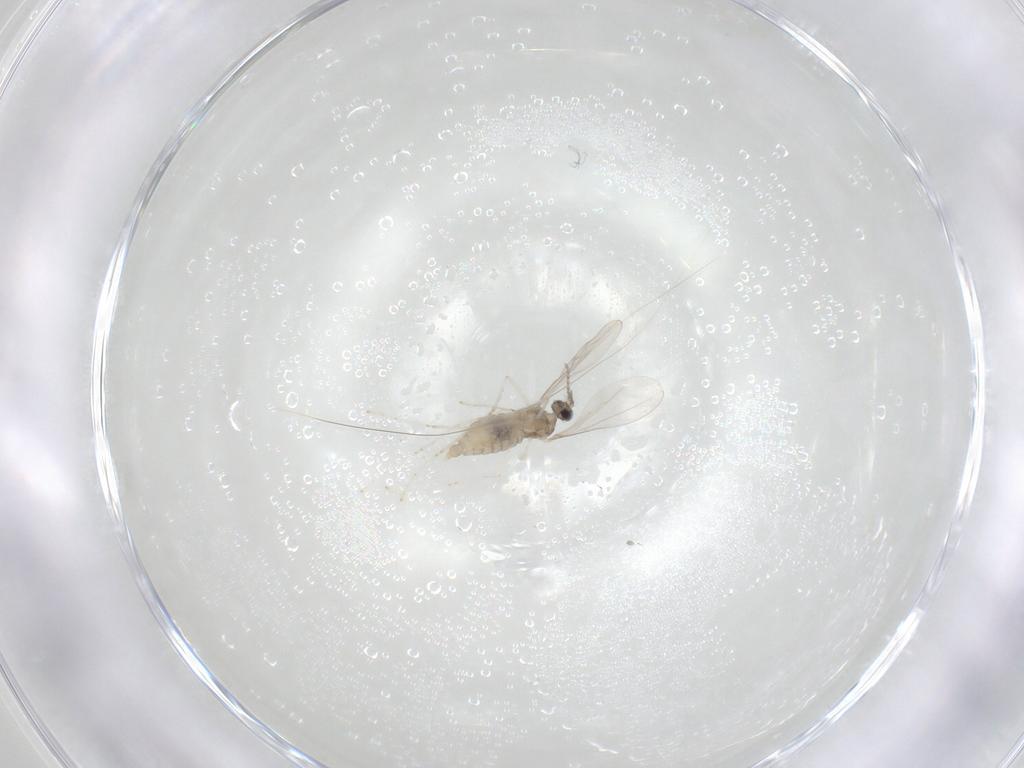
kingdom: Animalia
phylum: Arthropoda
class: Insecta
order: Diptera
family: Cecidomyiidae
